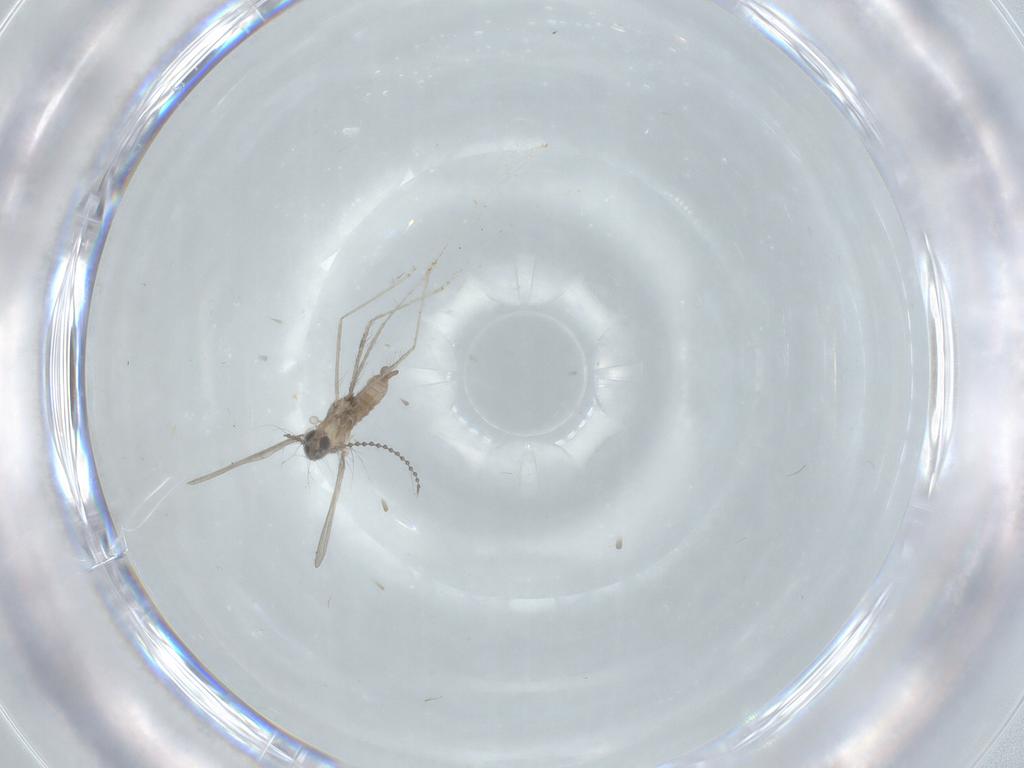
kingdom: Animalia
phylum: Arthropoda
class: Insecta
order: Diptera
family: Cecidomyiidae
